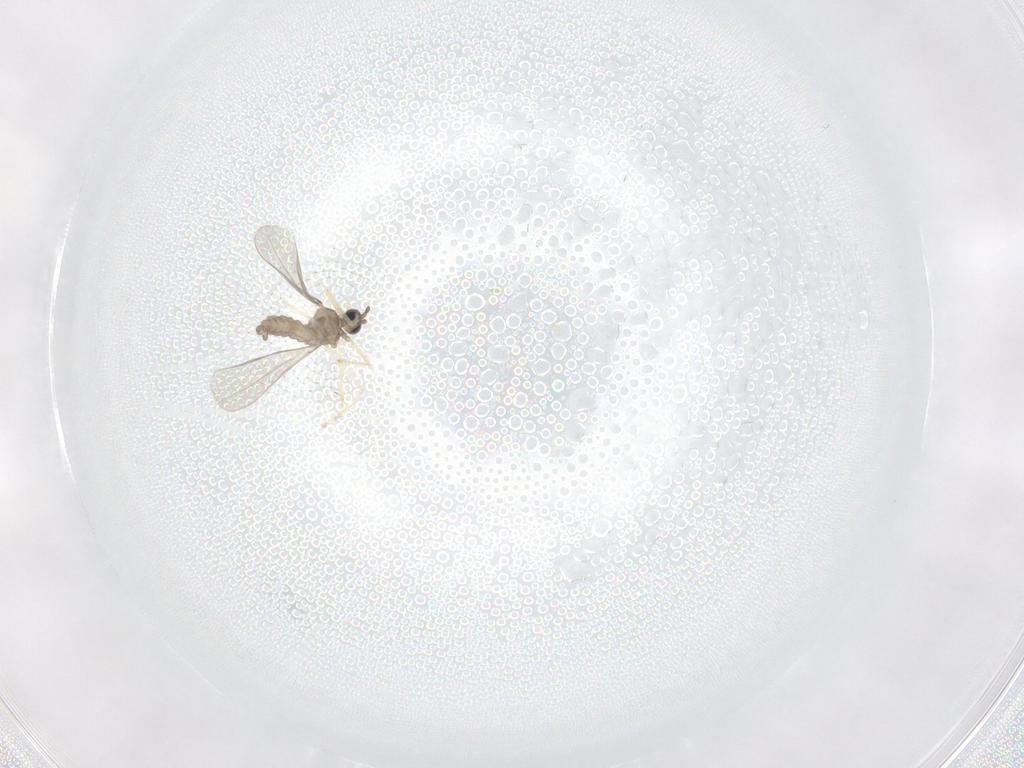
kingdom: Animalia
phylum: Arthropoda
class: Insecta
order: Diptera
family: Cecidomyiidae
